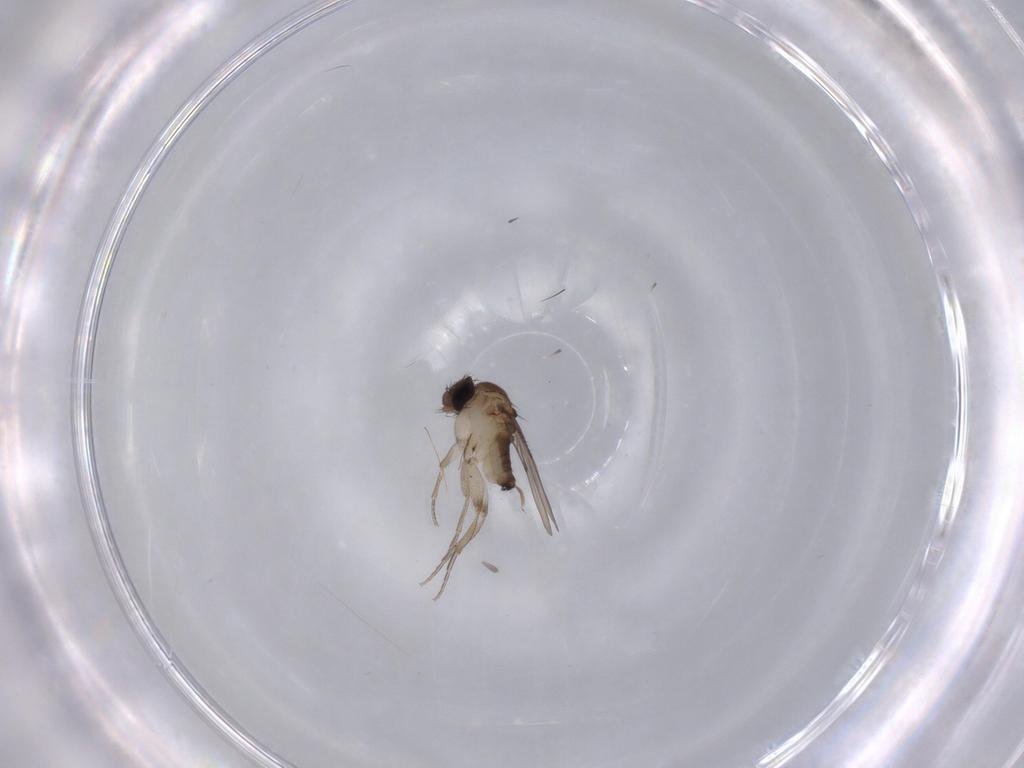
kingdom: Animalia
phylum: Arthropoda
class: Insecta
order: Diptera
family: Phoridae
